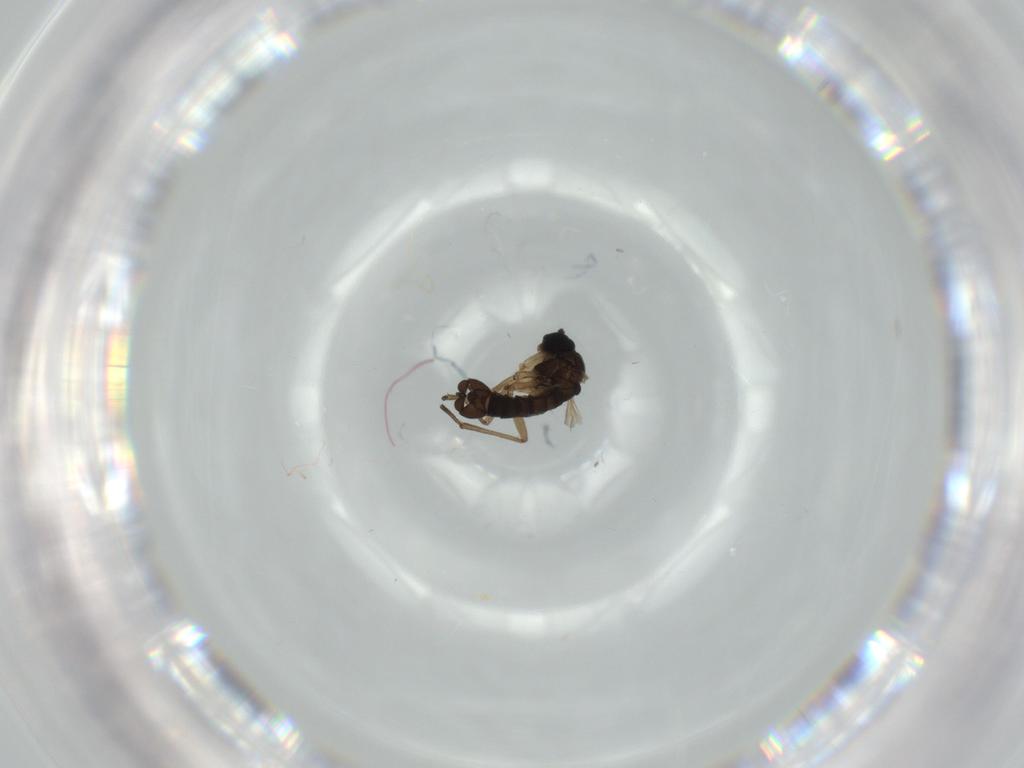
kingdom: Animalia
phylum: Arthropoda
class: Insecta
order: Diptera
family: Sciaridae
